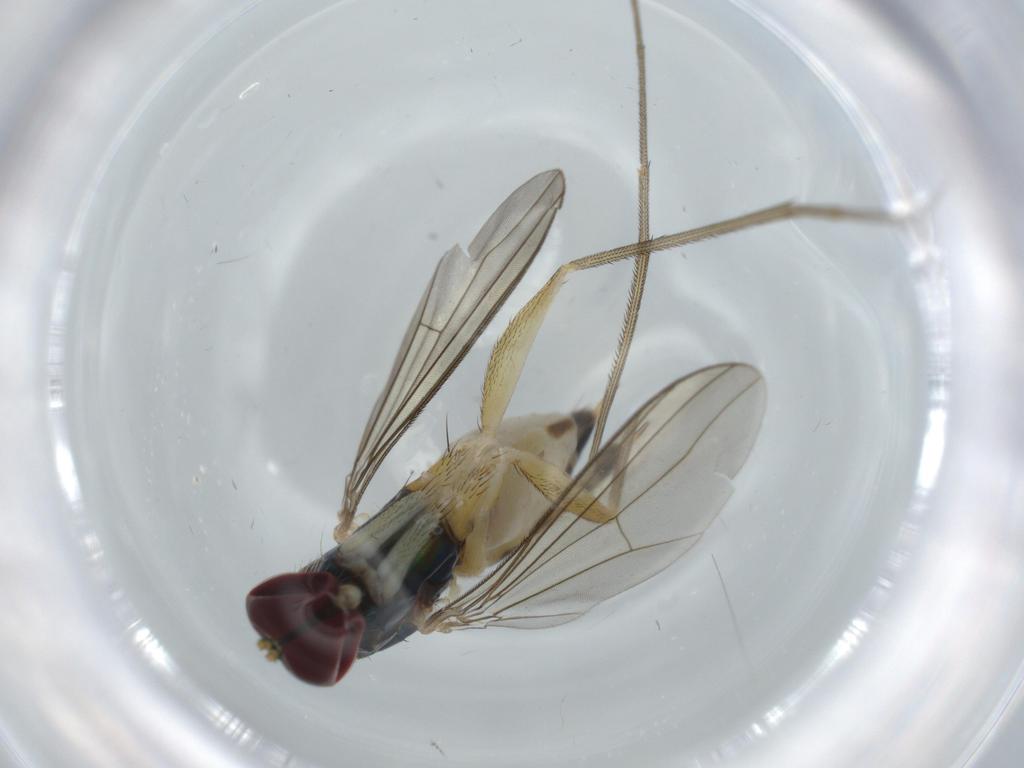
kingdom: Animalia
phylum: Arthropoda
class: Insecta
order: Diptera
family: Dolichopodidae
